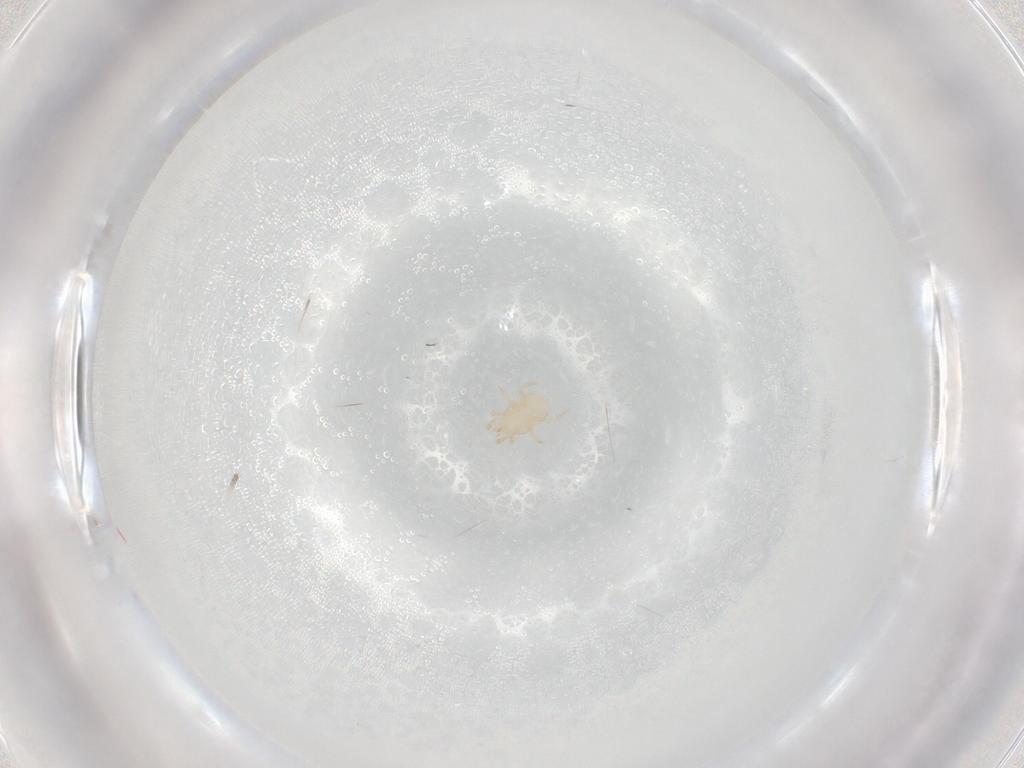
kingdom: Animalia
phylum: Arthropoda
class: Arachnida
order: Mesostigmata
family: Melicharidae
